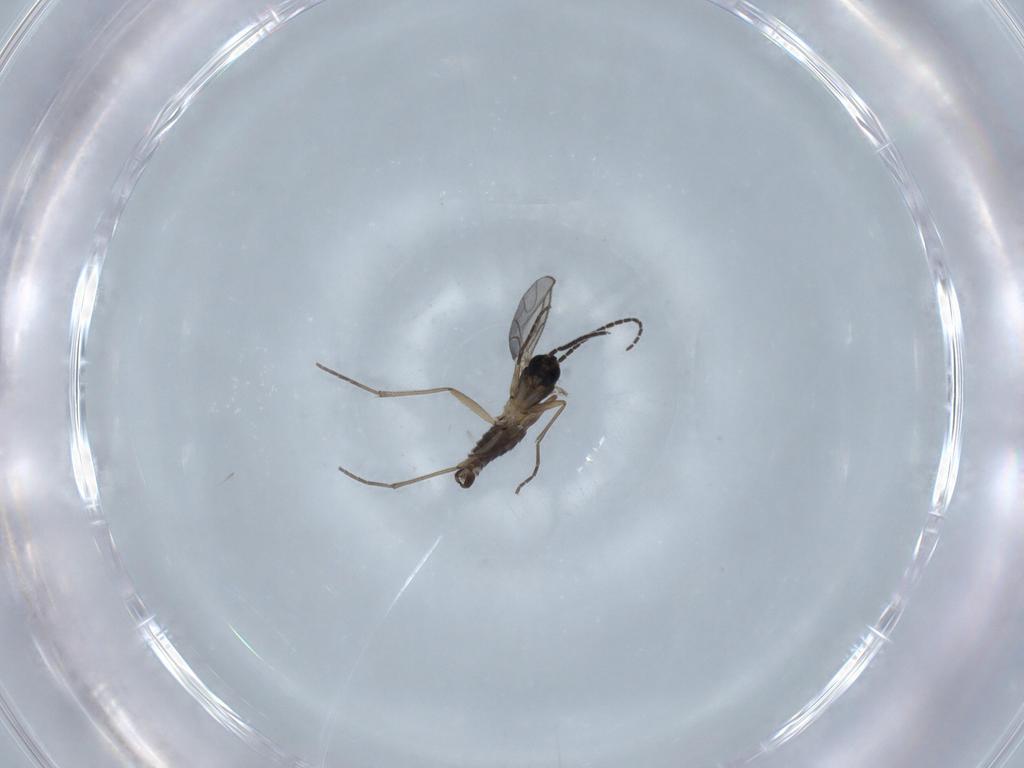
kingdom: Animalia
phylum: Arthropoda
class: Insecta
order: Diptera
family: Sciaridae
